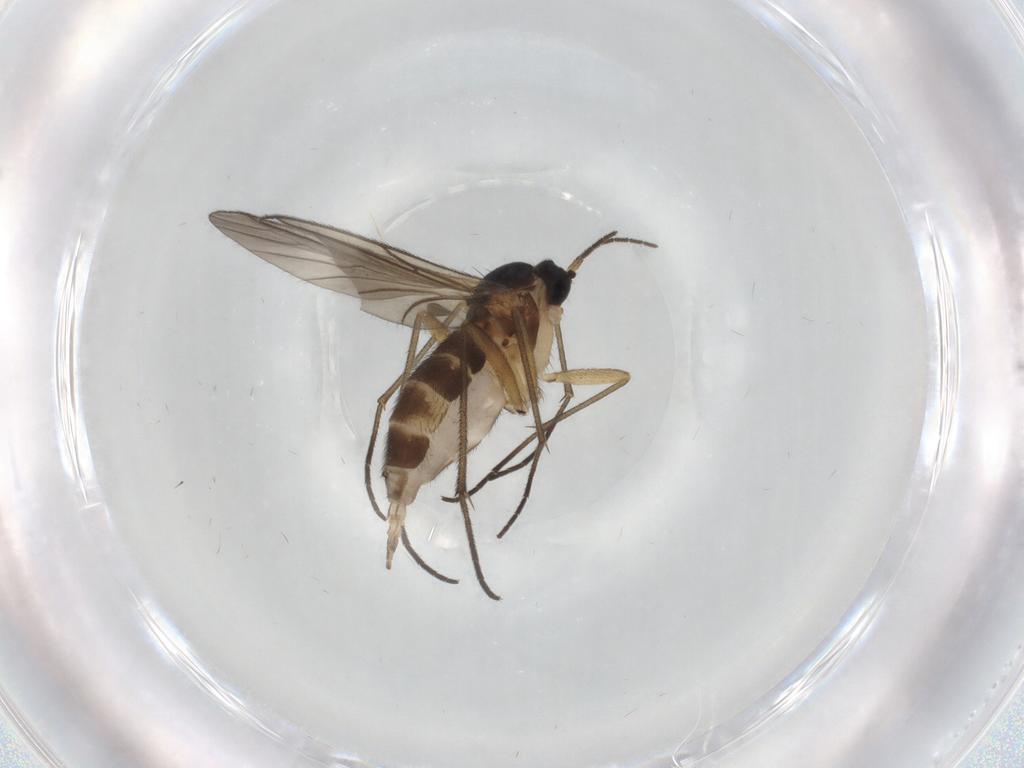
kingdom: Animalia
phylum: Arthropoda
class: Insecta
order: Diptera
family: Sciaridae
